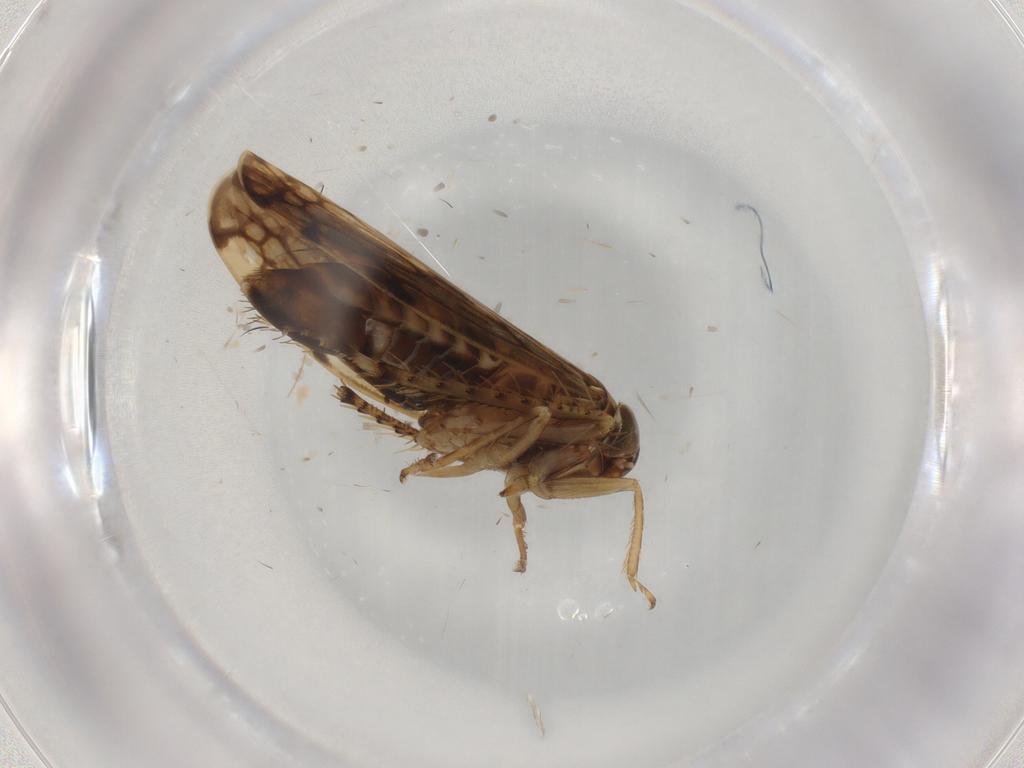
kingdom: Animalia
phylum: Arthropoda
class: Insecta
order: Hemiptera
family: Cicadellidae
